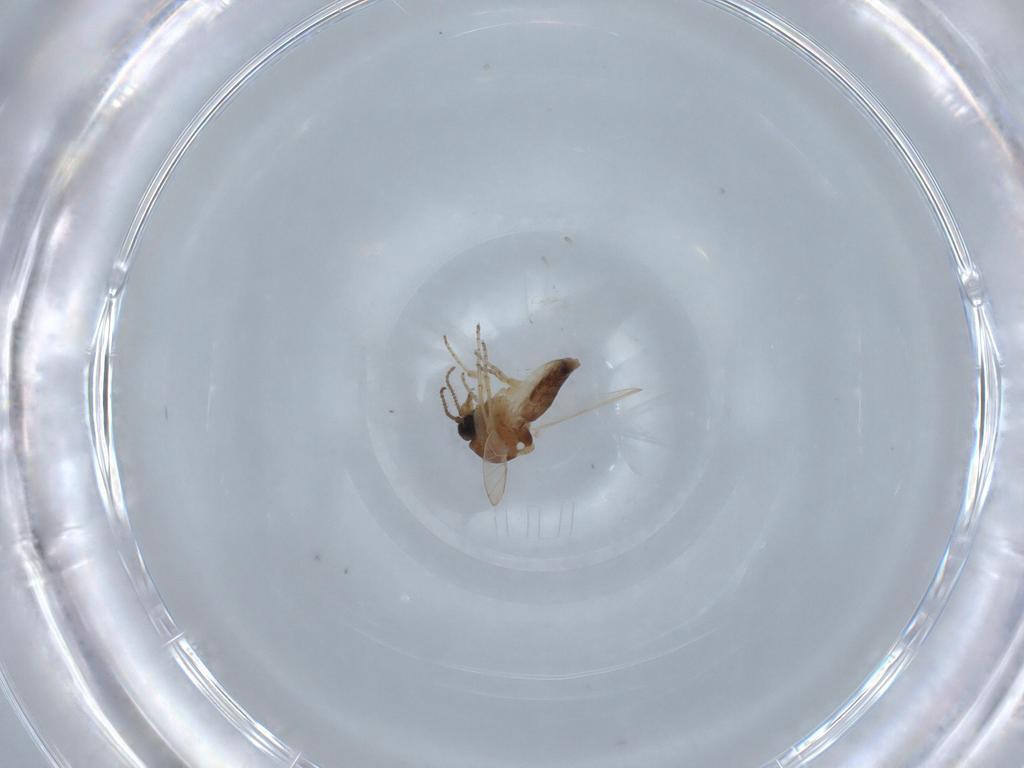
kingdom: Animalia
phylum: Arthropoda
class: Insecta
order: Diptera
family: Ceratopogonidae
